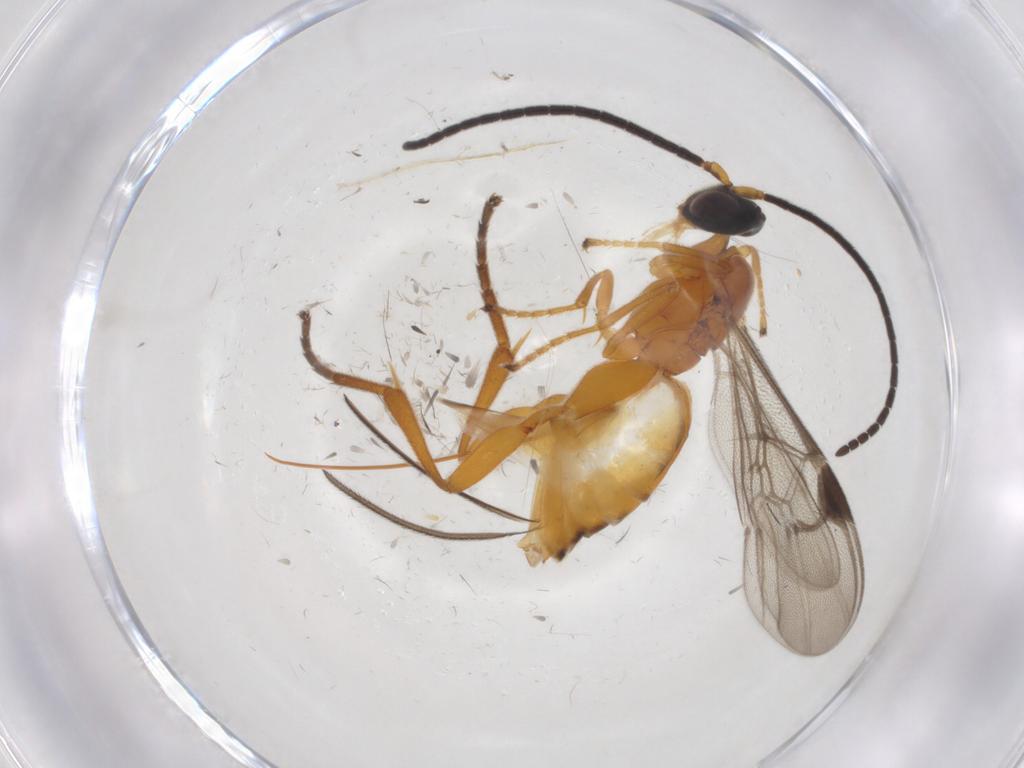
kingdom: Animalia
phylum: Arthropoda
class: Insecta
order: Hymenoptera
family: Braconidae
